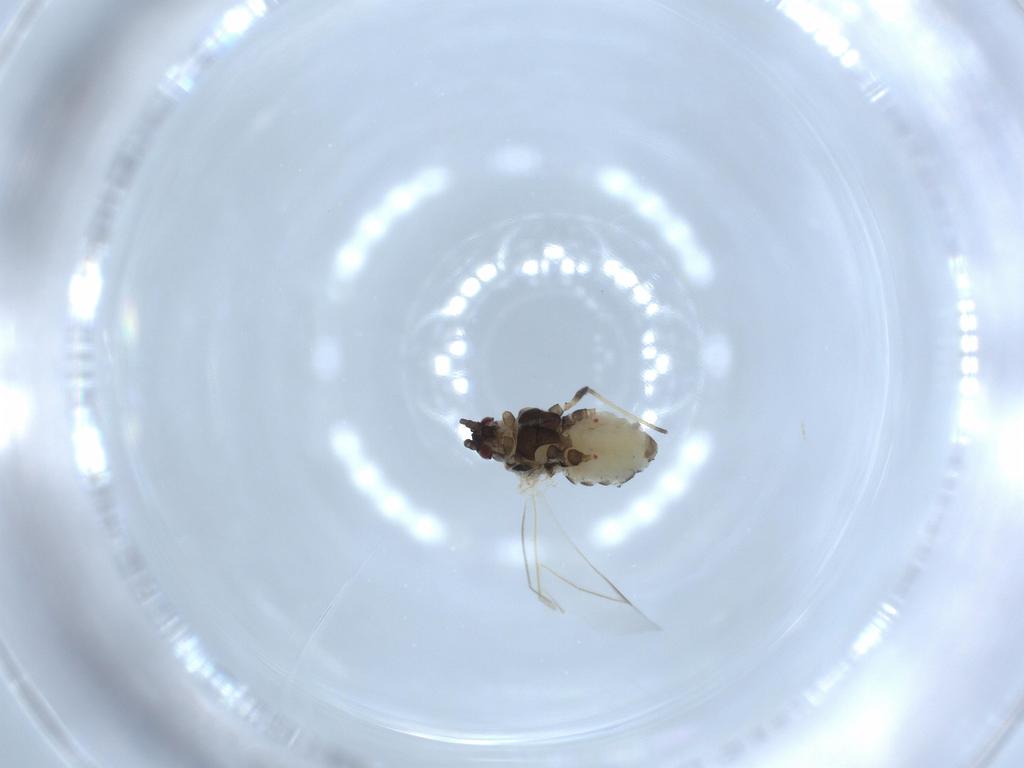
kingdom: Animalia
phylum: Arthropoda
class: Insecta
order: Hemiptera
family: Aphididae
